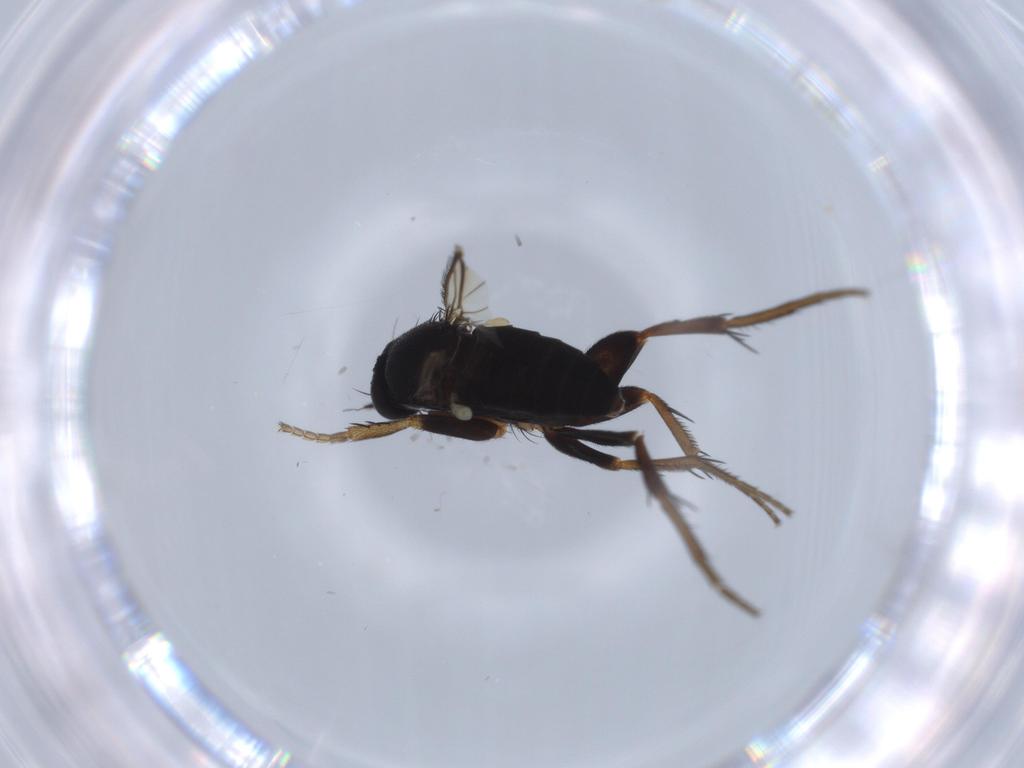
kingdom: Animalia
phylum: Arthropoda
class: Insecta
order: Diptera
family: Phoridae
